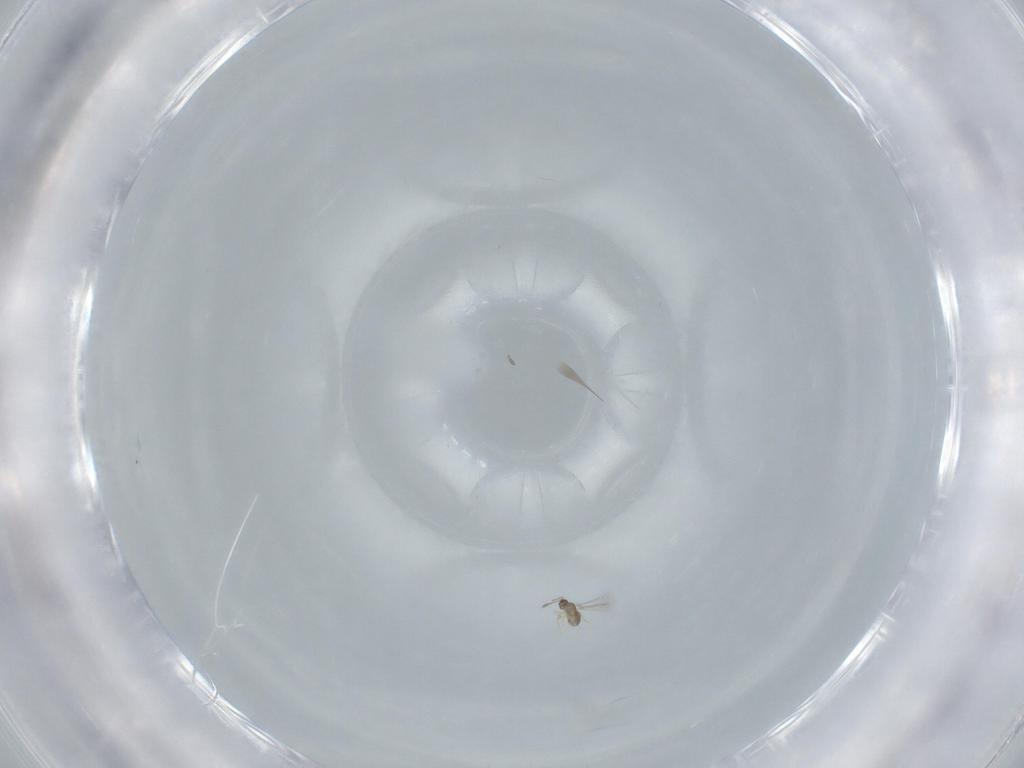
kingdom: Animalia
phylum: Arthropoda
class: Insecta
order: Hymenoptera
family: Mymaridae
